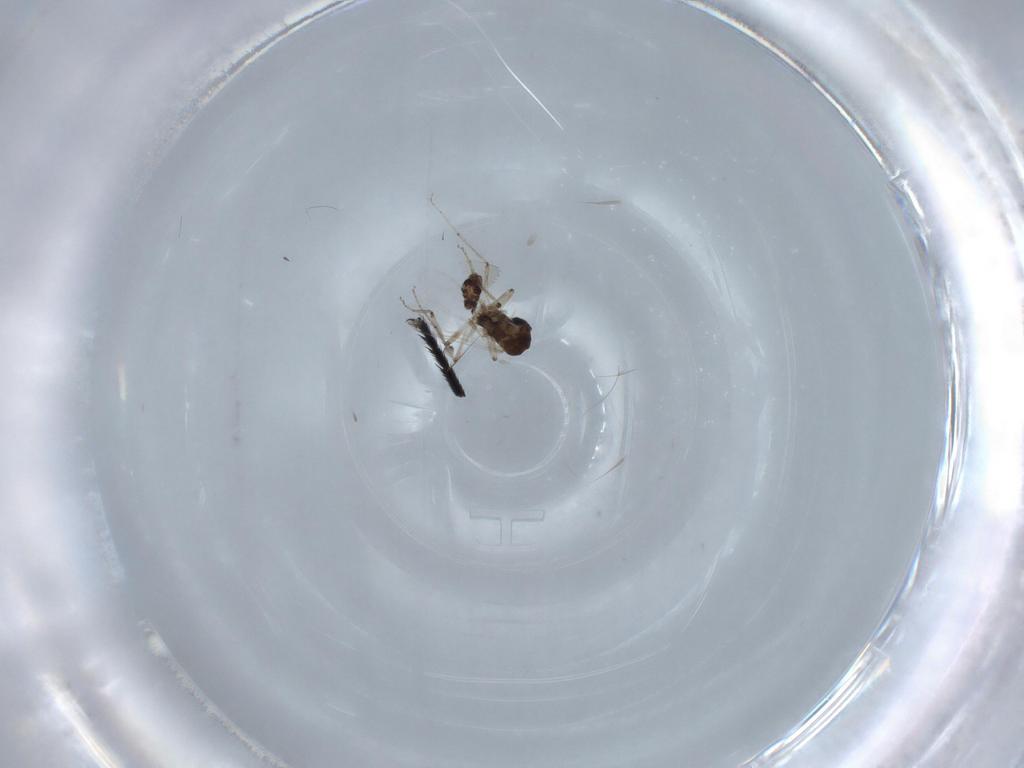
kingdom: Animalia
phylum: Arthropoda
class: Insecta
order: Diptera
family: Ceratopogonidae
